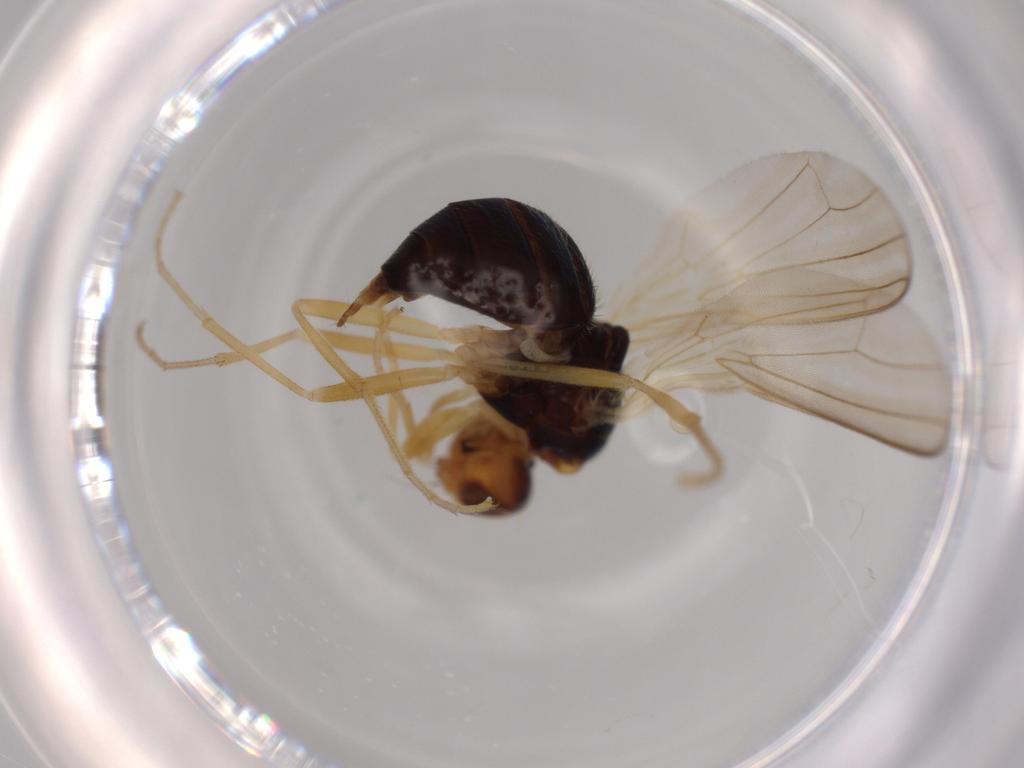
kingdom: Animalia
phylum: Arthropoda
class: Insecta
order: Diptera
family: Psilidae
